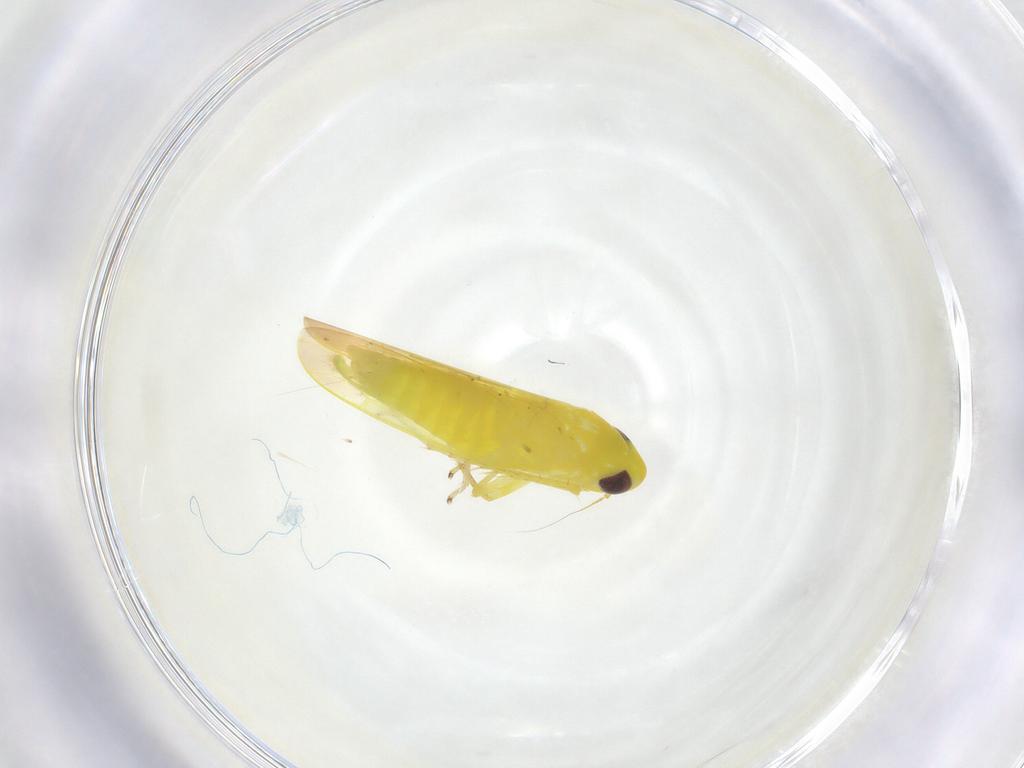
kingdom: Animalia
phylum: Arthropoda
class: Insecta
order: Hemiptera
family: Cicadellidae
